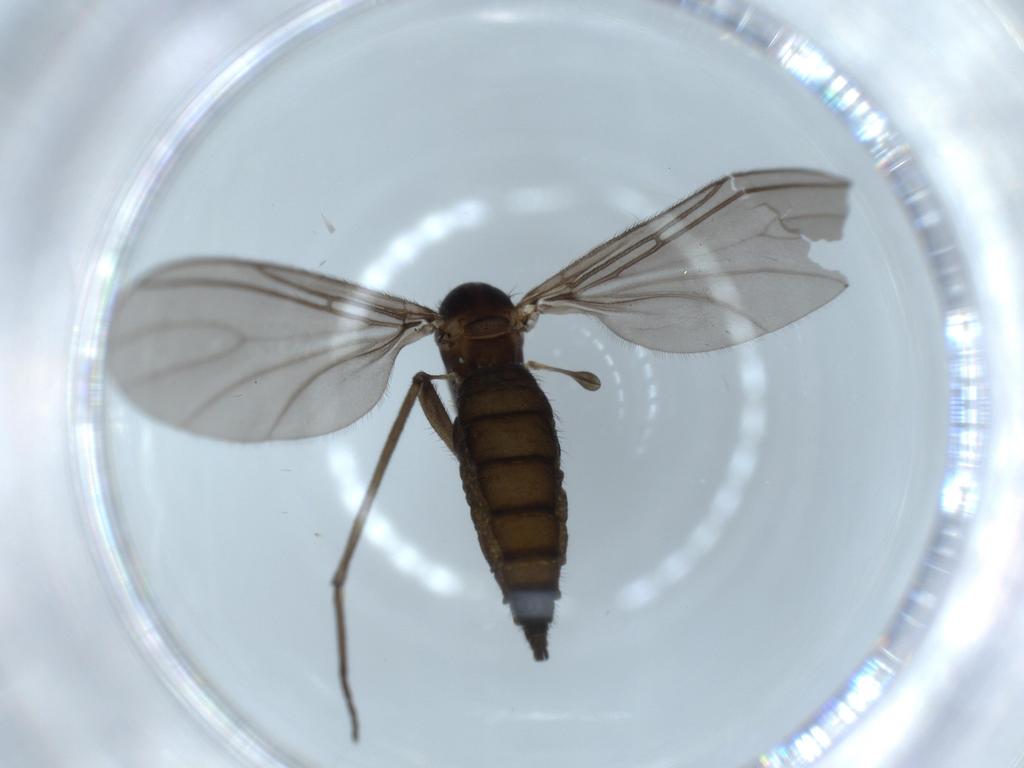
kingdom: Animalia
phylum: Arthropoda
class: Insecta
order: Diptera
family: Sciaridae
